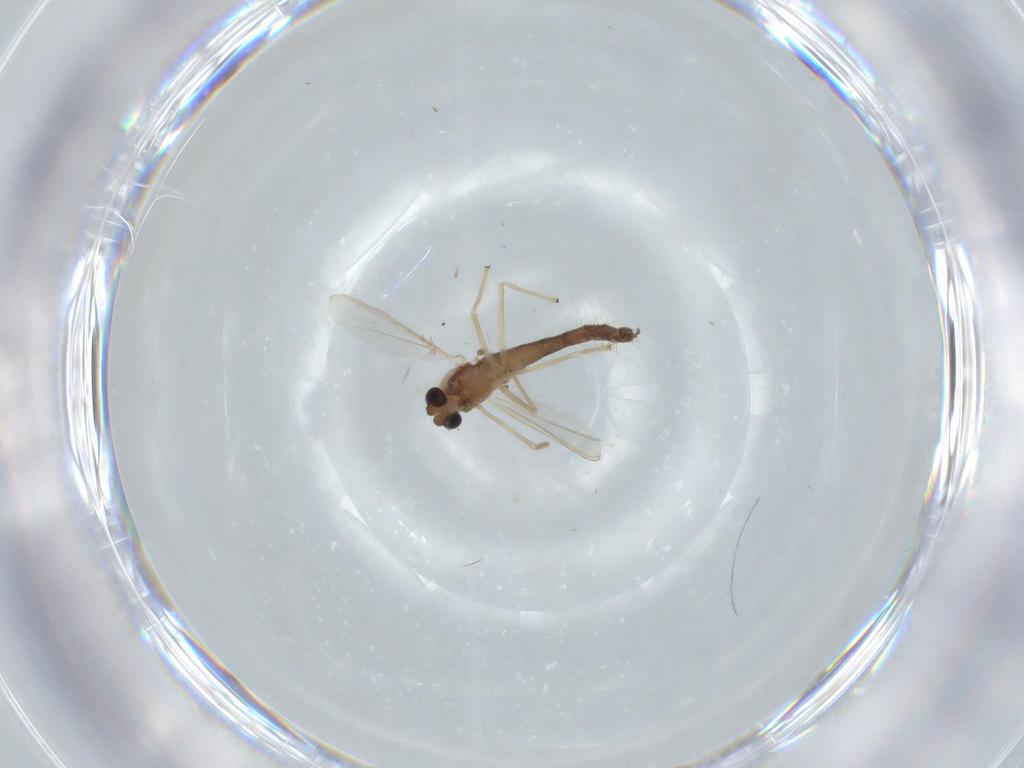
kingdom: Animalia
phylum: Arthropoda
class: Insecta
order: Diptera
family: Chironomidae
